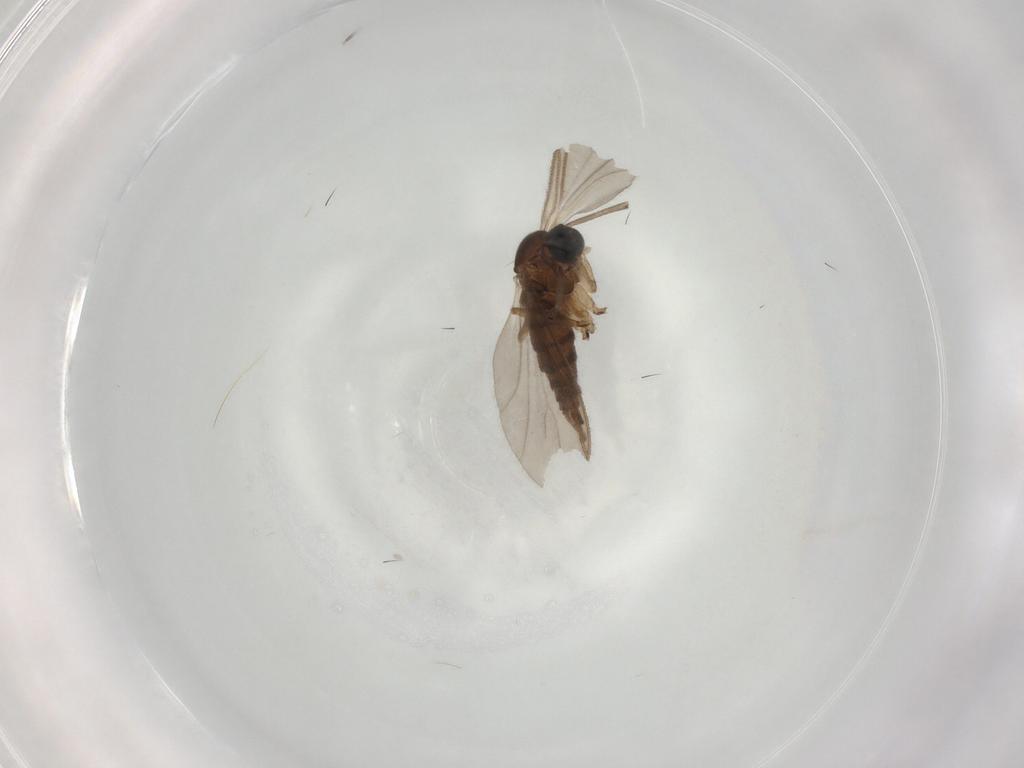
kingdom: Animalia
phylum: Arthropoda
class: Insecta
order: Diptera
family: Sciaridae
